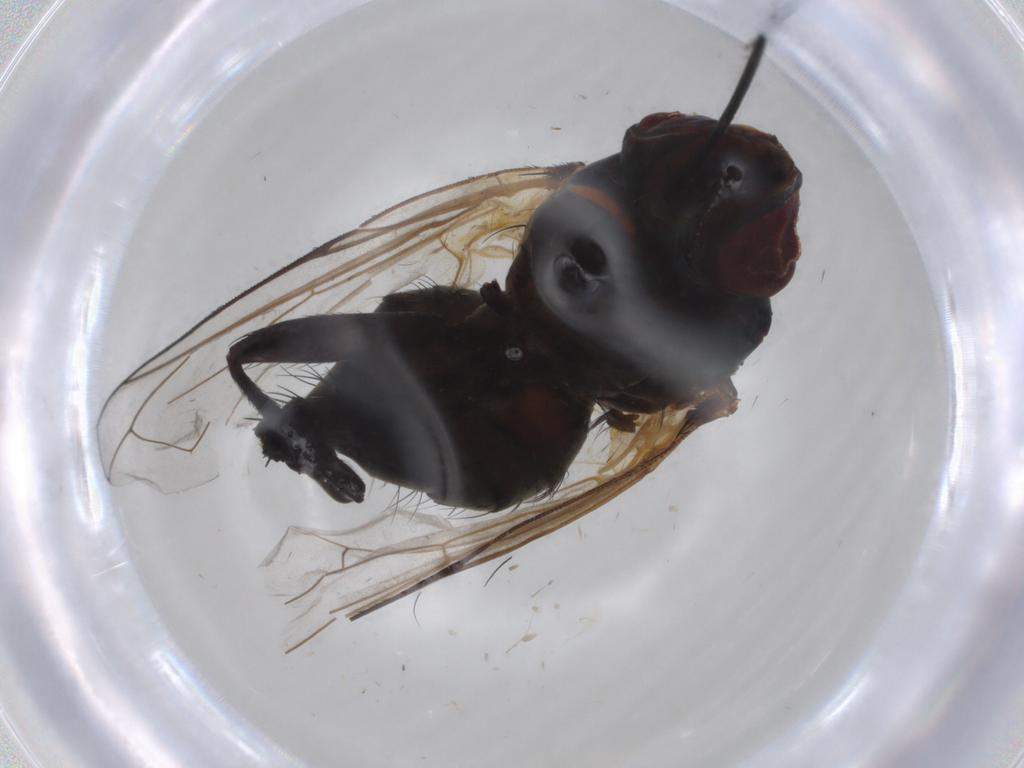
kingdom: Animalia
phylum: Arthropoda
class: Insecta
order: Diptera
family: Tachinidae
